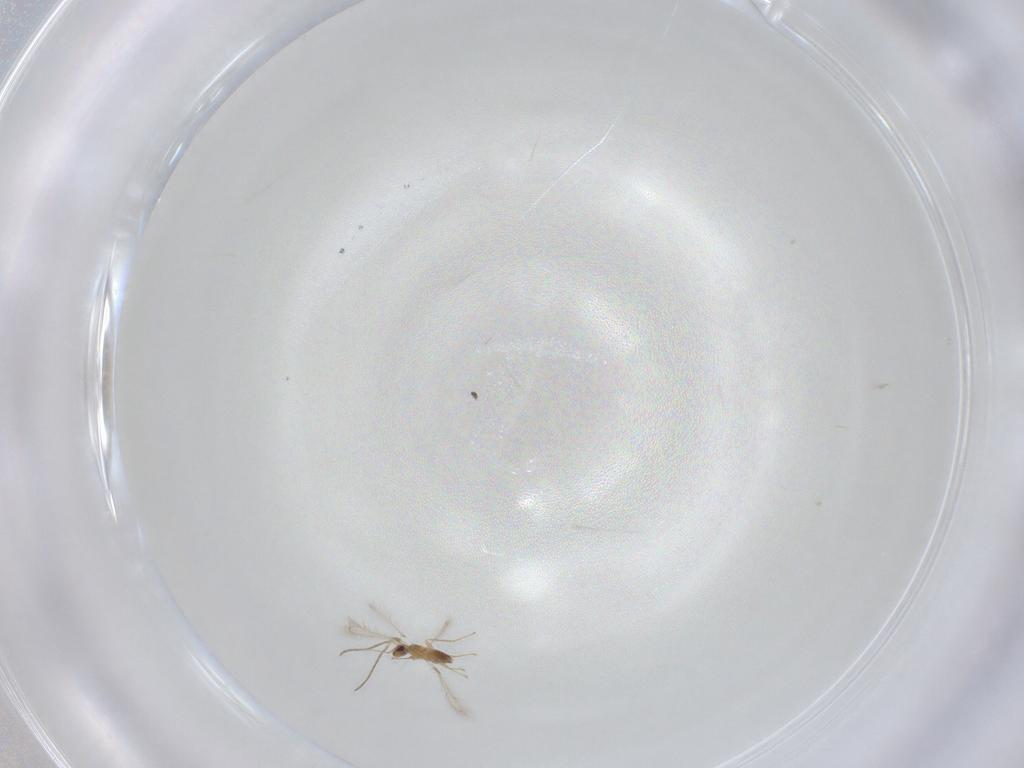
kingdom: Animalia
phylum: Arthropoda
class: Insecta
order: Hymenoptera
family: Mymaridae
